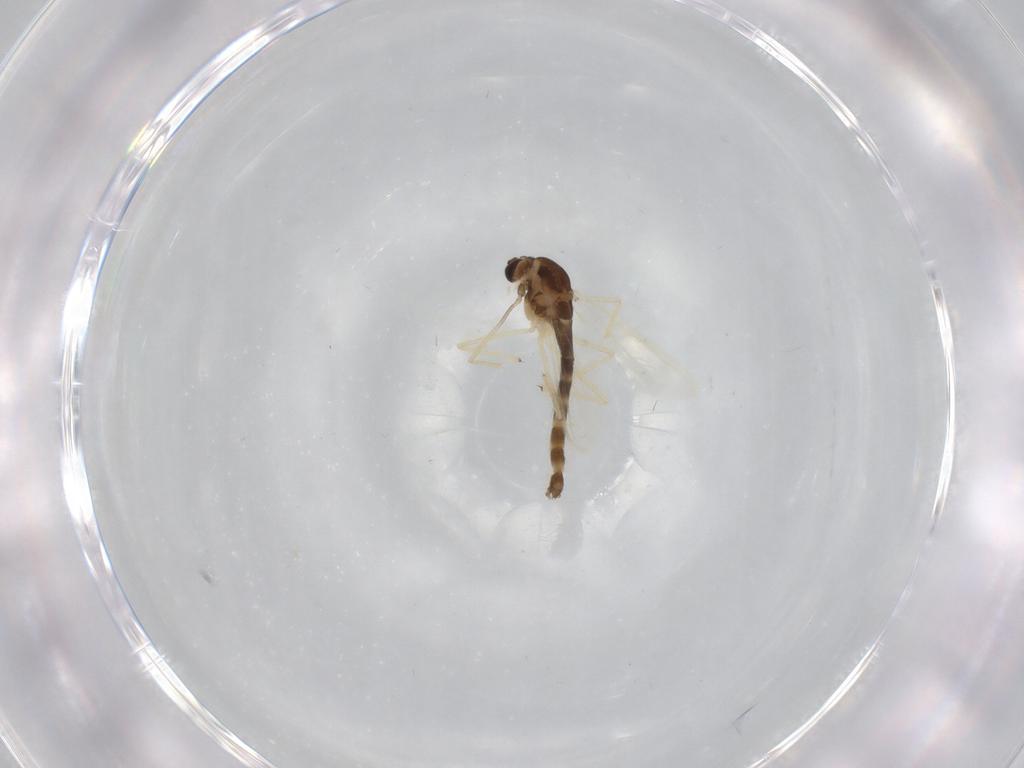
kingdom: Animalia
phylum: Arthropoda
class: Insecta
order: Diptera
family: Chironomidae
